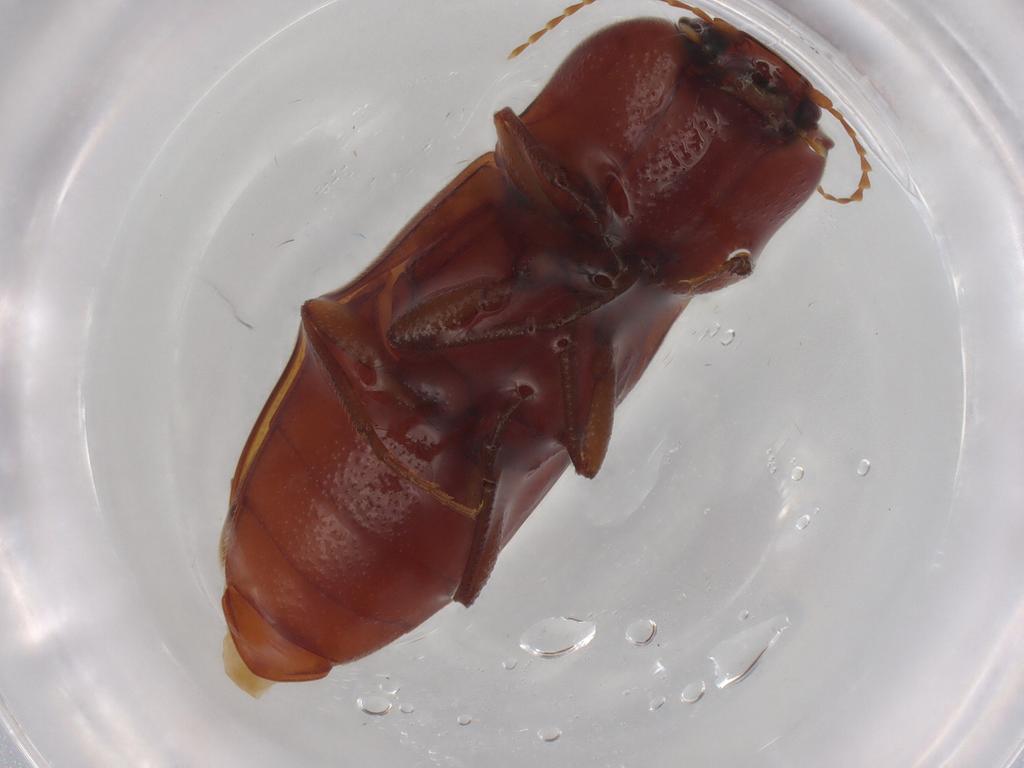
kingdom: Animalia
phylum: Arthropoda
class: Insecta
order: Coleoptera
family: Elateridae
